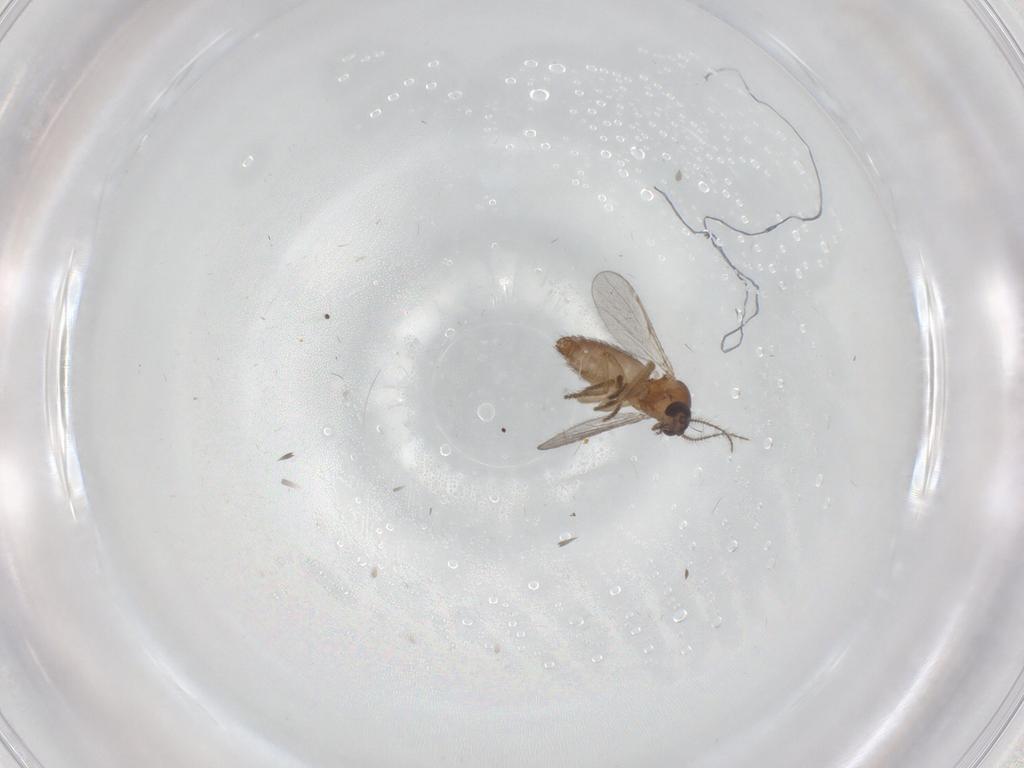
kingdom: Animalia
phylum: Arthropoda
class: Insecta
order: Diptera
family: Ceratopogonidae
